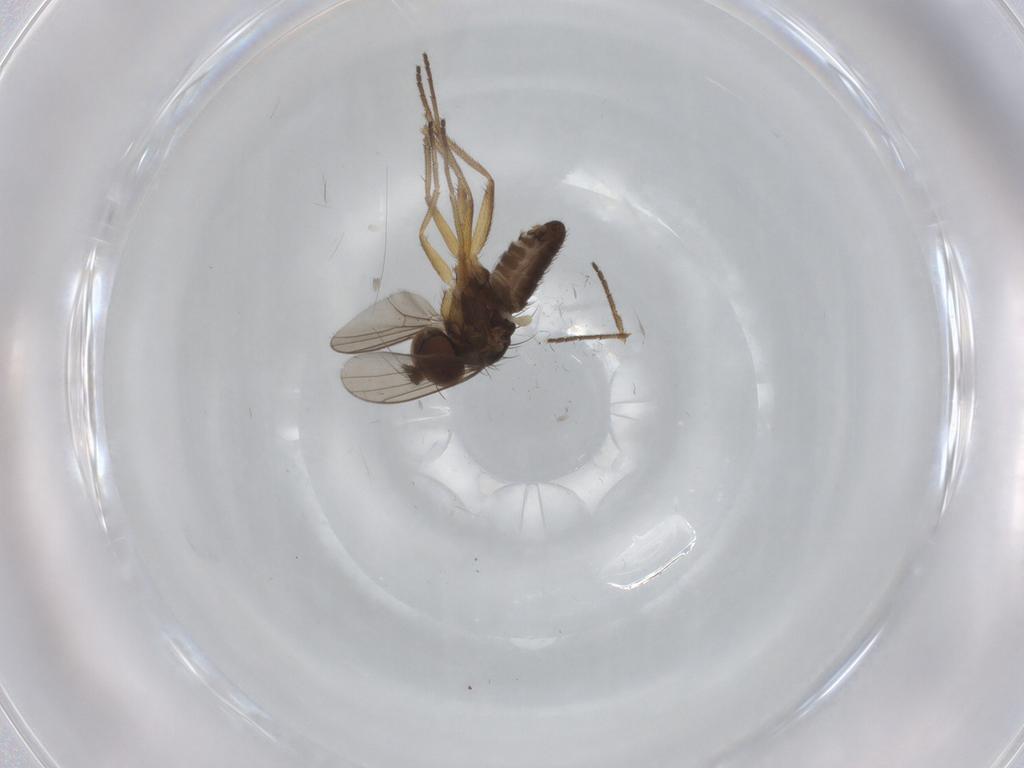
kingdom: Animalia
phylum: Arthropoda
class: Insecta
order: Diptera
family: Dolichopodidae
